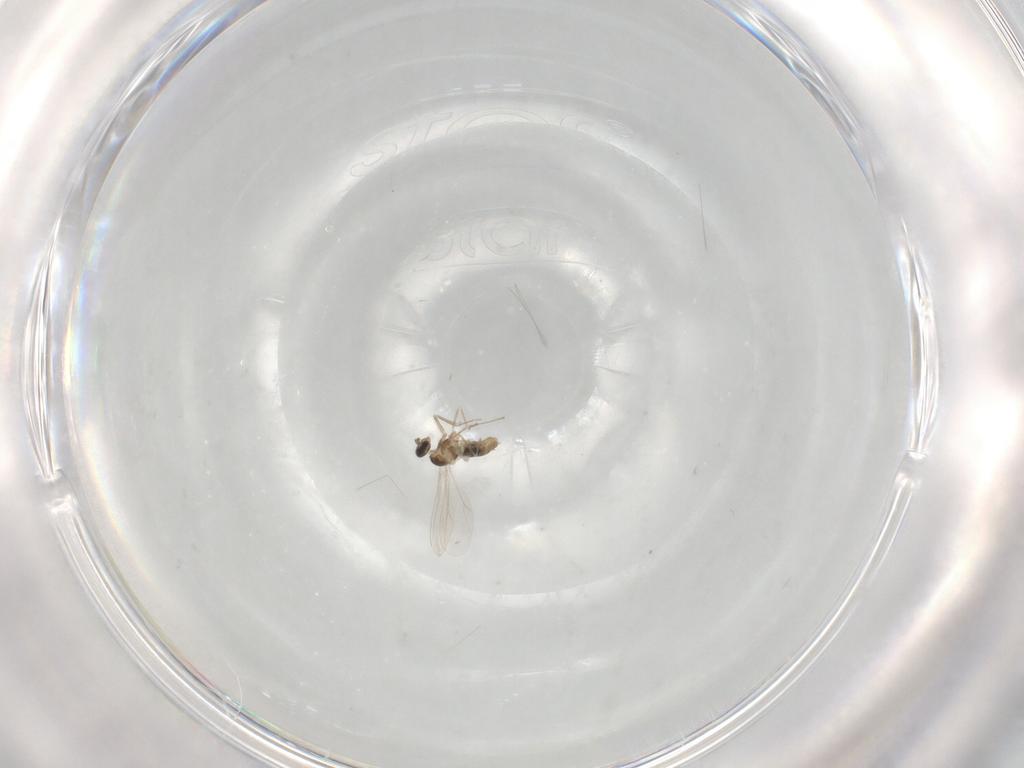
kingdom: Animalia
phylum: Arthropoda
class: Insecta
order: Diptera
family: Cecidomyiidae
